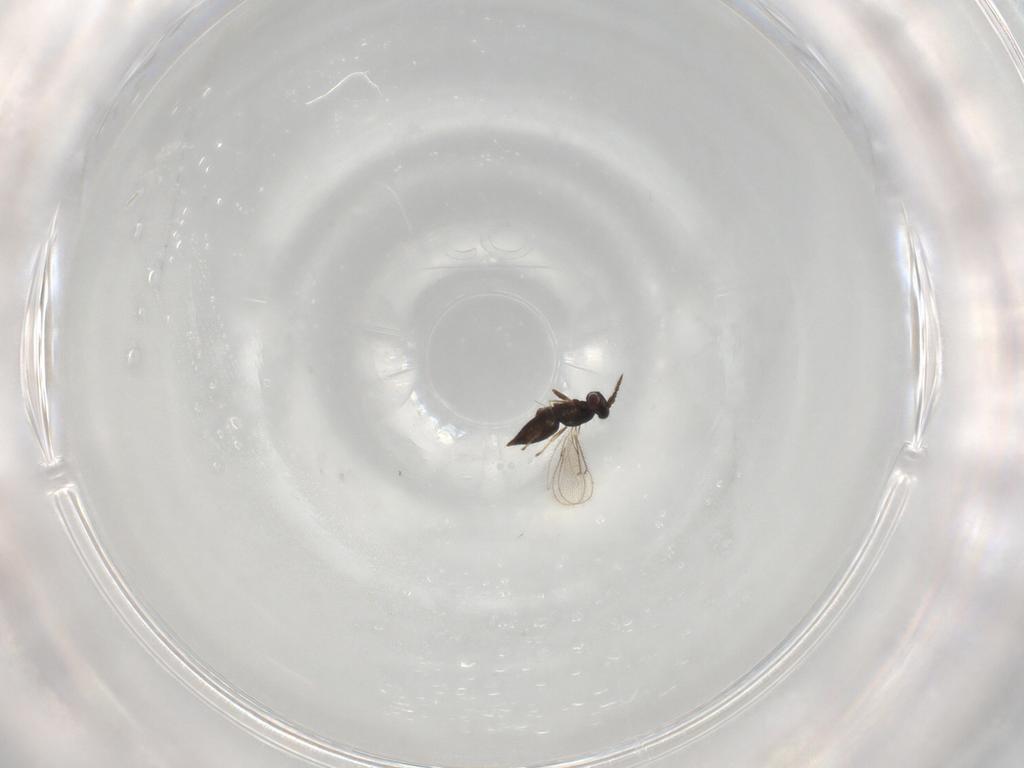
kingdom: Animalia
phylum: Arthropoda
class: Insecta
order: Hymenoptera
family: Eulophidae
